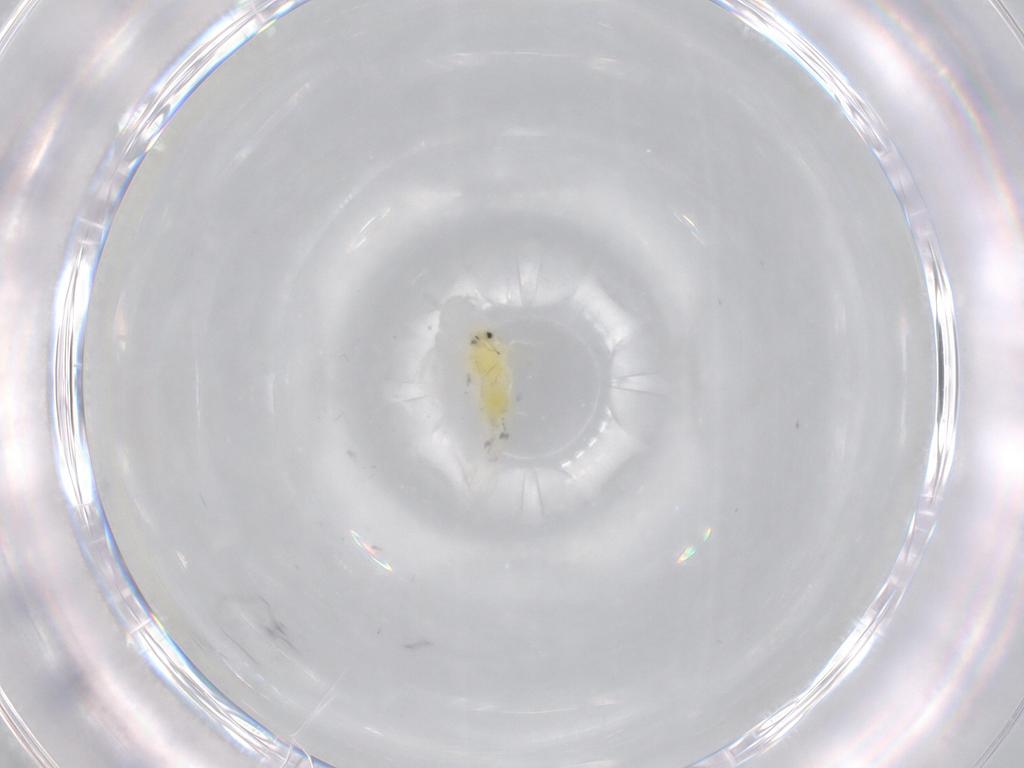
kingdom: Animalia
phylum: Arthropoda
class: Insecta
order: Hemiptera
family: Aleyrodidae
